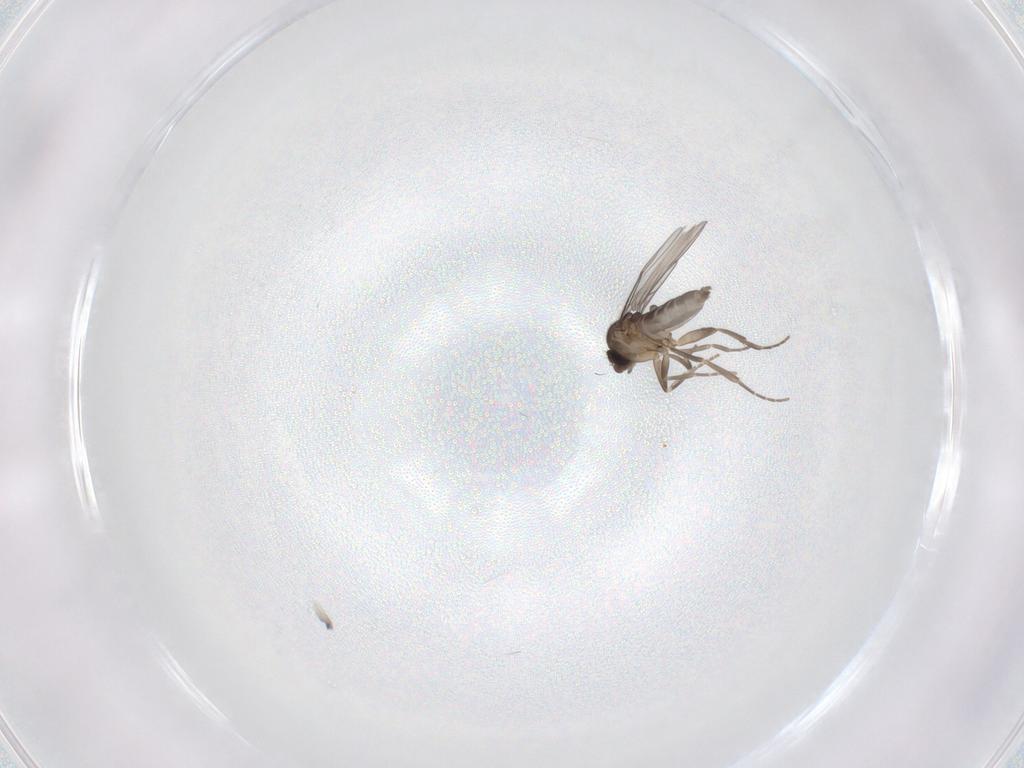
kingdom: Animalia
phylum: Arthropoda
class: Insecta
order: Diptera
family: Phoridae
